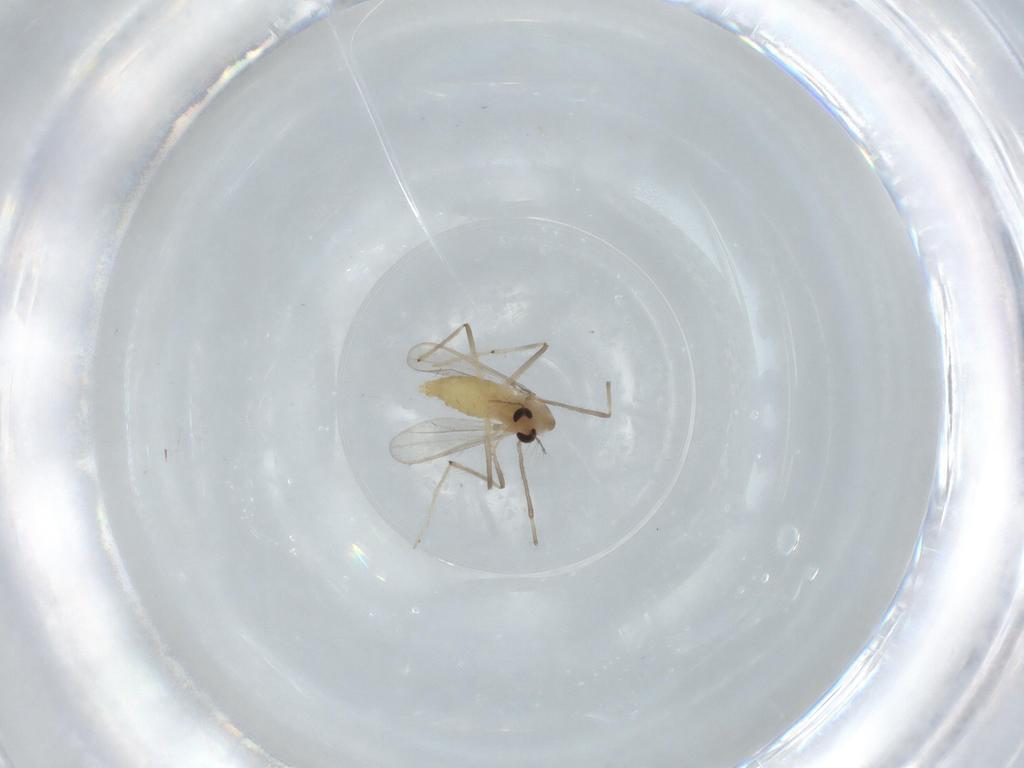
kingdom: Animalia
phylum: Arthropoda
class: Insecta
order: Diptera
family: Chironomidae
